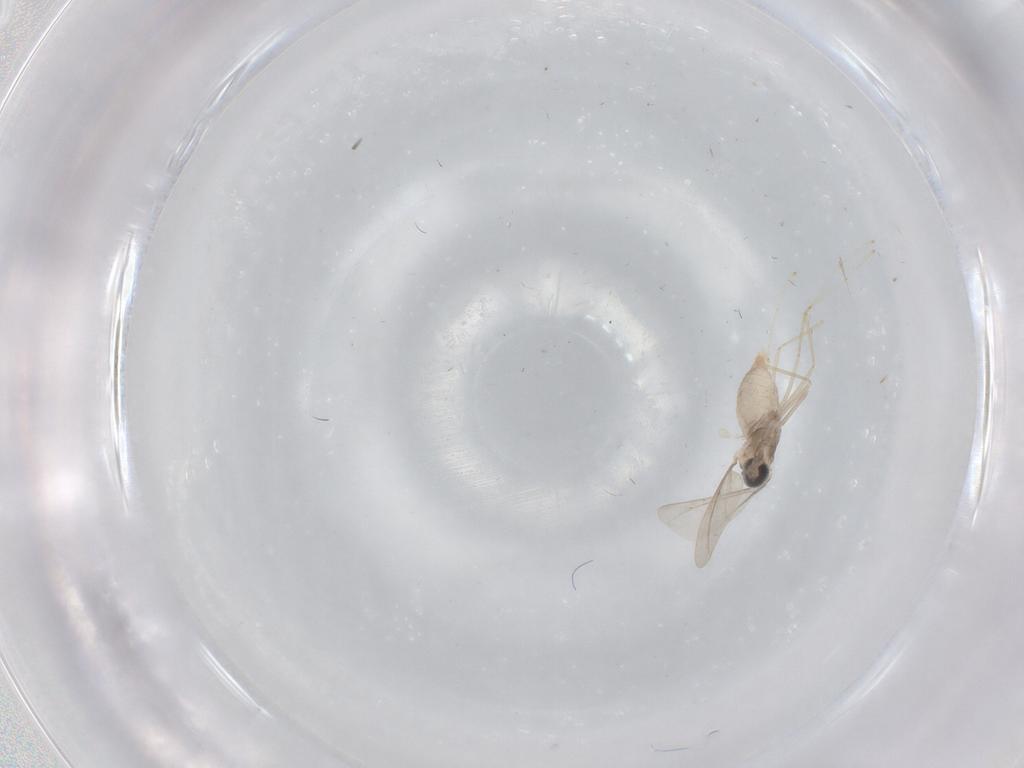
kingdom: Animalia
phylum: Arthropoda
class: Insecta
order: Diptera
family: Cecidomyiidae
